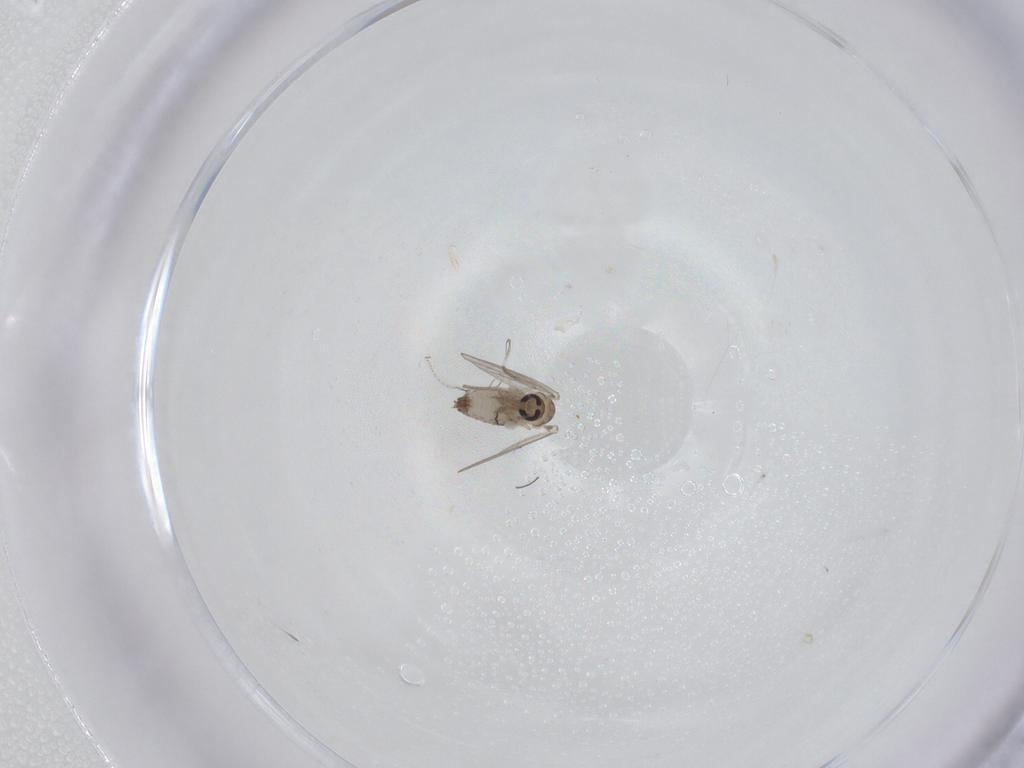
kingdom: Animalia
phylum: Arthropoda
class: Insecta
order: Diptera
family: Psychodidae
